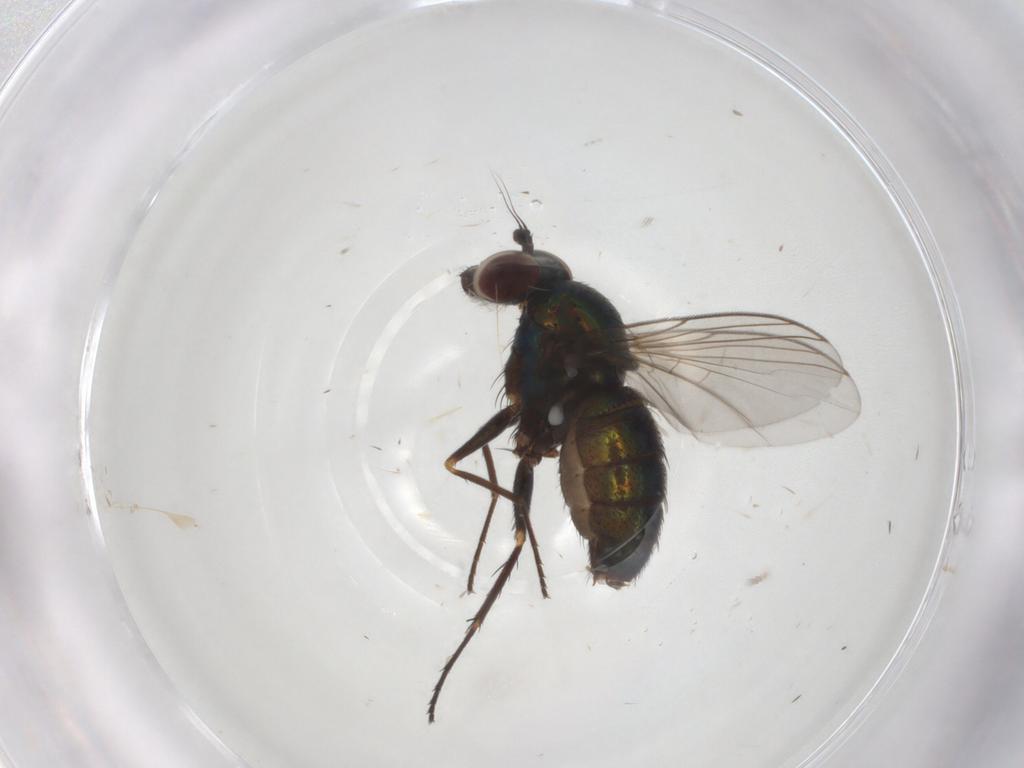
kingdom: Animalia
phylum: Arthropoda
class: Insecta
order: Diptera
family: Dolichopodidae
